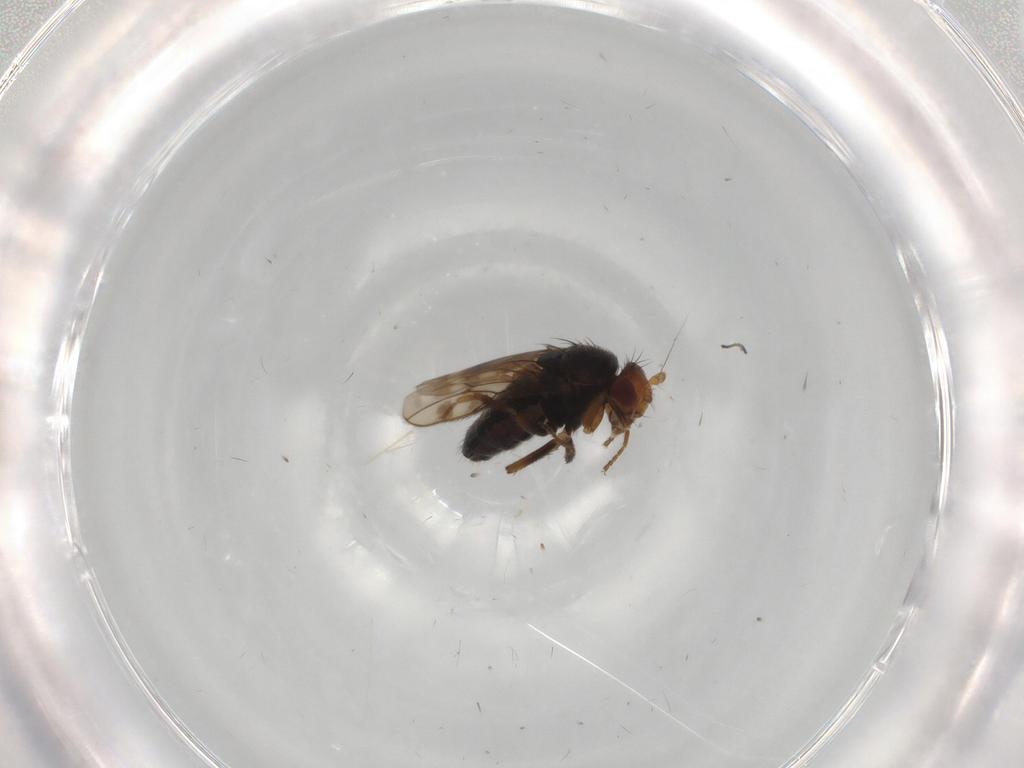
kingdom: Animalia
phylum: Arthropoda
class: Insecta
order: Diptera
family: Sphaeroceridae
